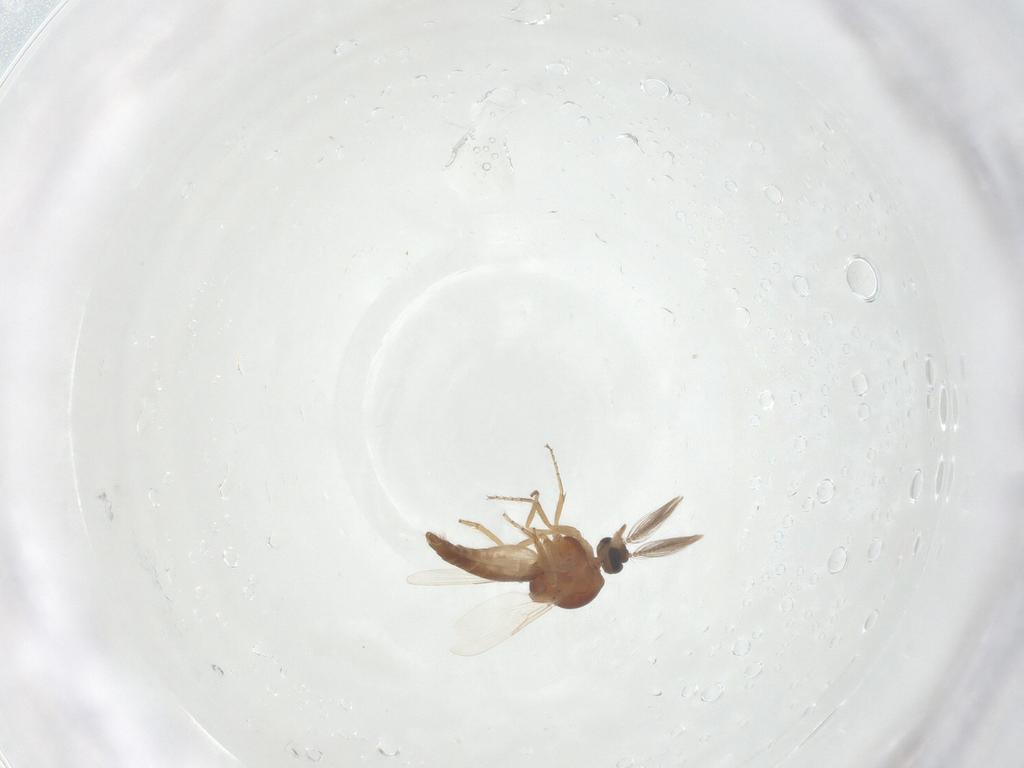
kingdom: Animalia
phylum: Arthropoda
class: Insecta
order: Diptera
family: Ceratopogonidae
